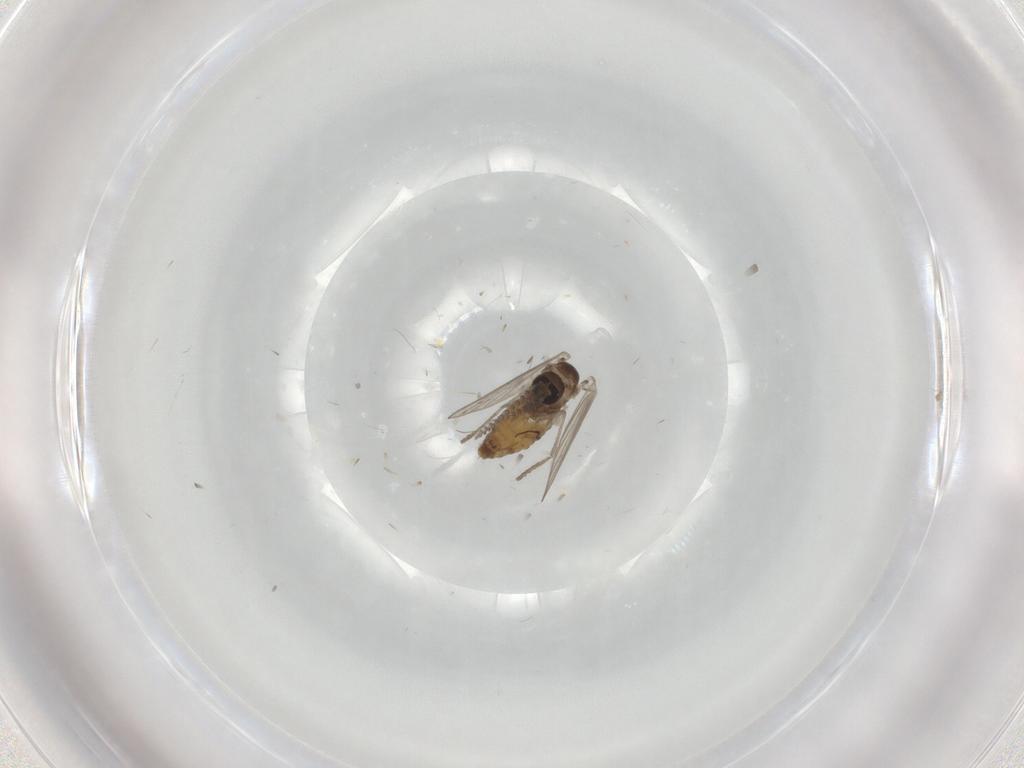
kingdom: Animalia
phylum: Arthropoda
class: Insecta
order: Diptera
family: Psychodidae
